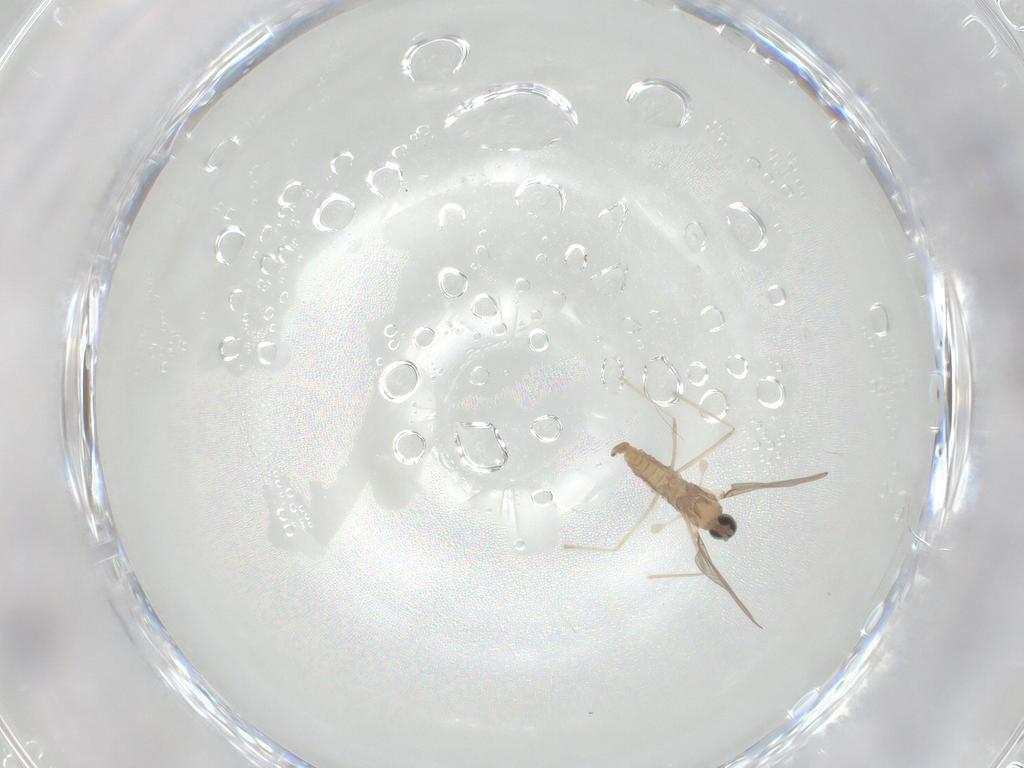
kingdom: Animalia
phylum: Arthropoda
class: Insecta
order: Diptera
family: Cecidomyiidae
